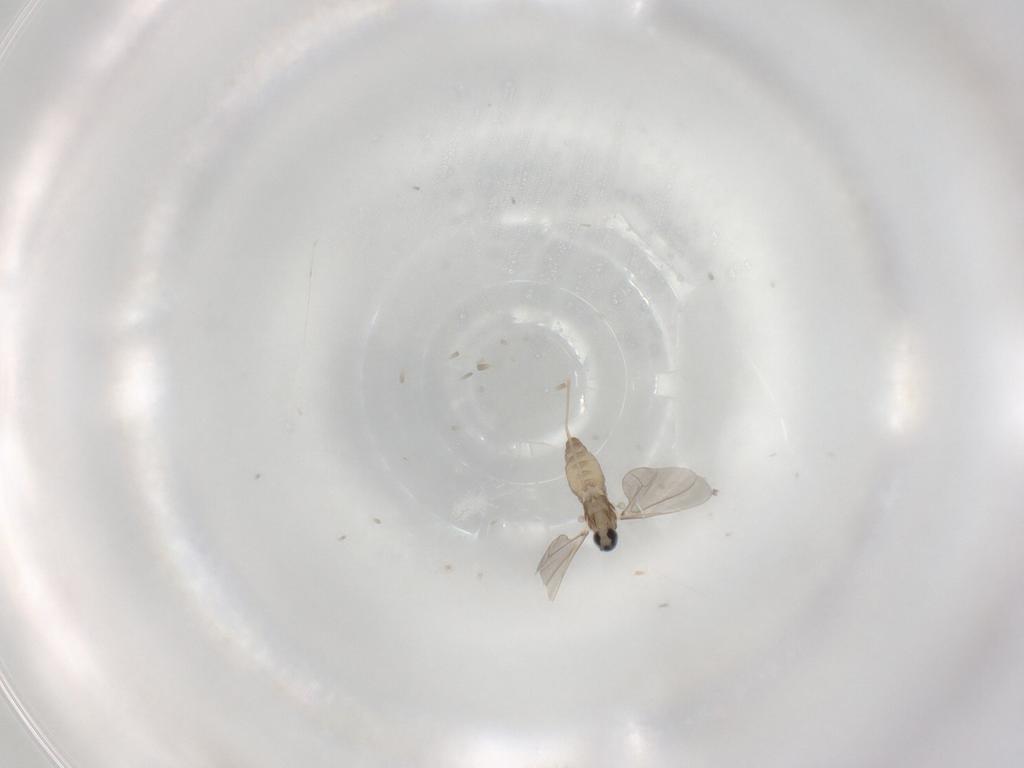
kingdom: Animalia
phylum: Arthropoda
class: Insecta
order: Diptera
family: Cecidomyiidae
